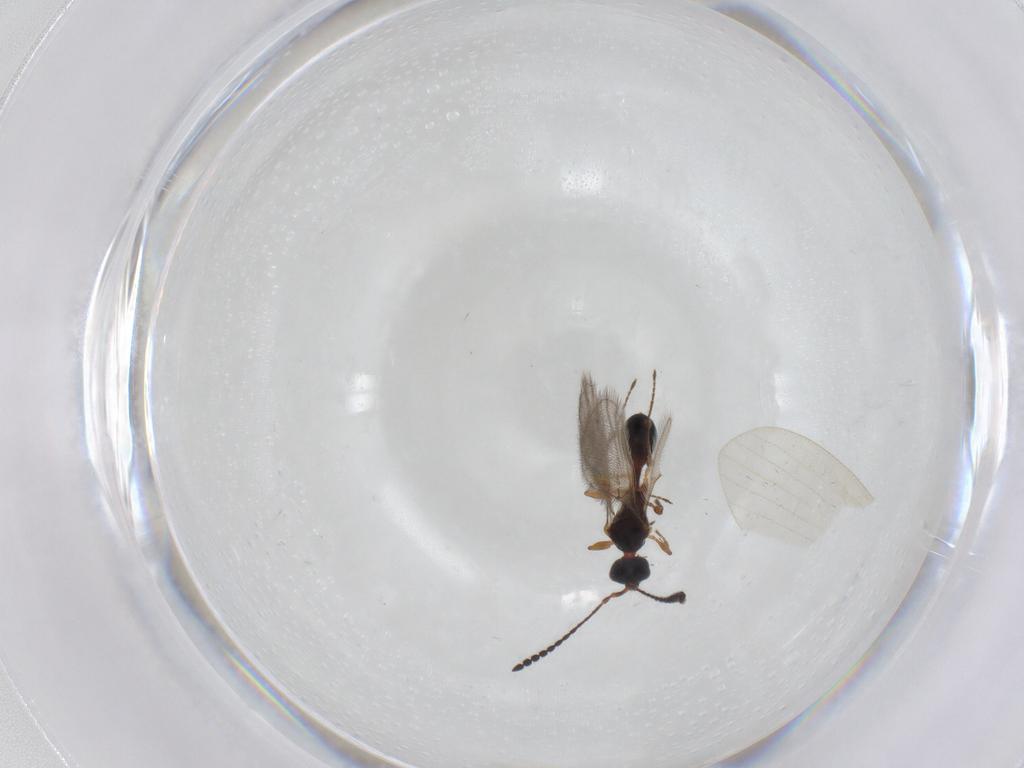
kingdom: Animalia
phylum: Arthropoda
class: Insecta
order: Hymenoptera
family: Diapriidae
